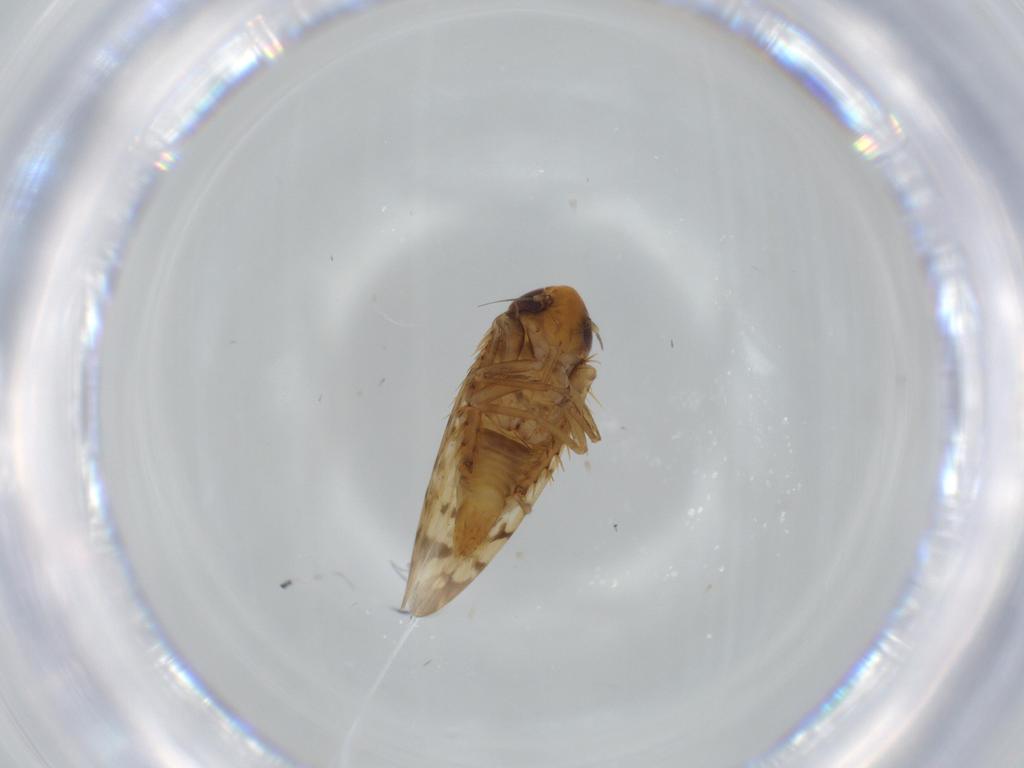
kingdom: Animalia
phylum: Arthropoda
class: Insecta
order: Hemiptera
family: Cicadellidae
